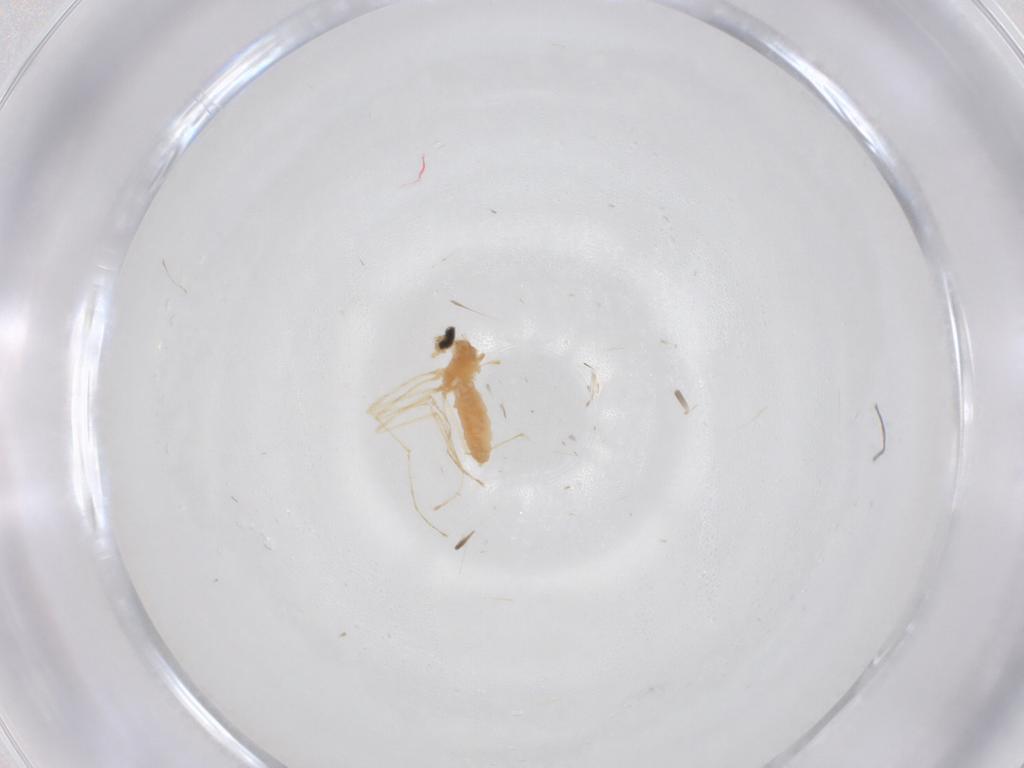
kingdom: Animalia
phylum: Arthropoda
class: Insecta
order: Diptera
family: Cecidomyiidae
